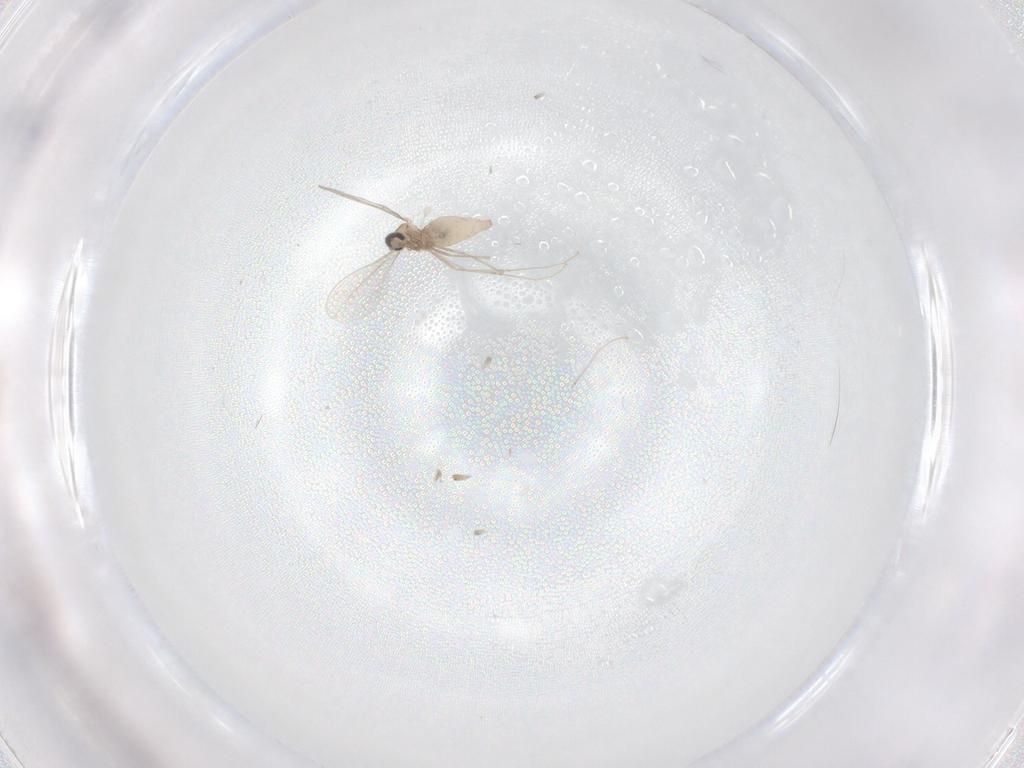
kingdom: Animalia
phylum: Arthropoda
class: Insecta
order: Diptera
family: Cecidomyiidae
